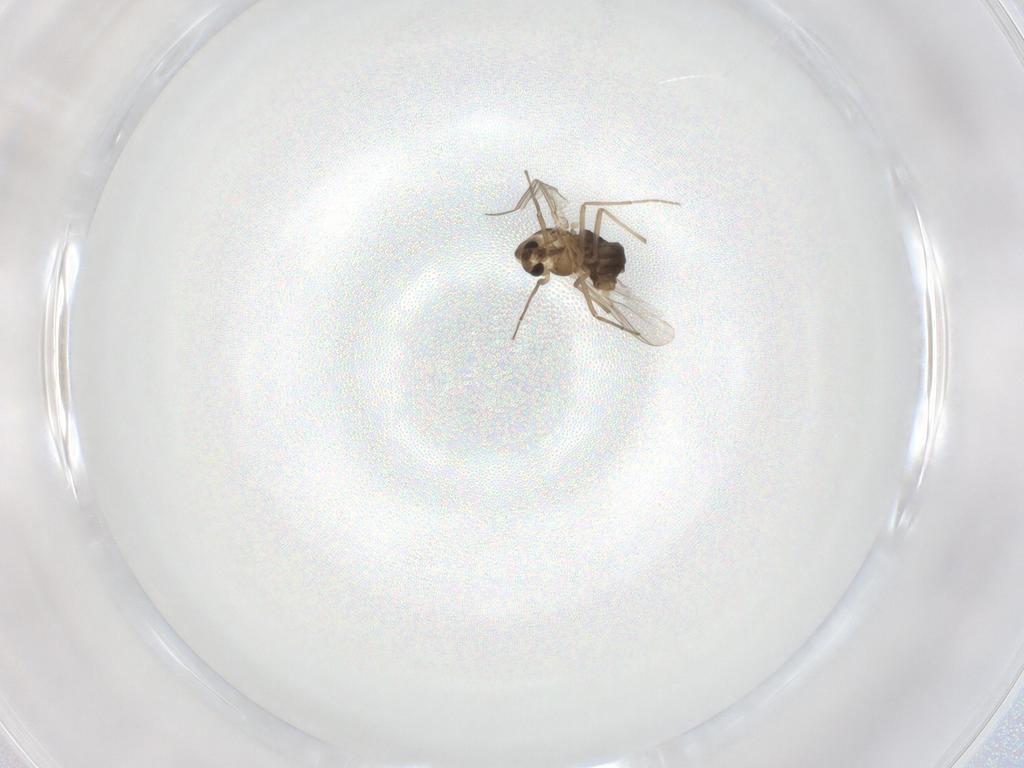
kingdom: Animalia
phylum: Arthropoda
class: Insecta
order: Diptera
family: Chironomidae
